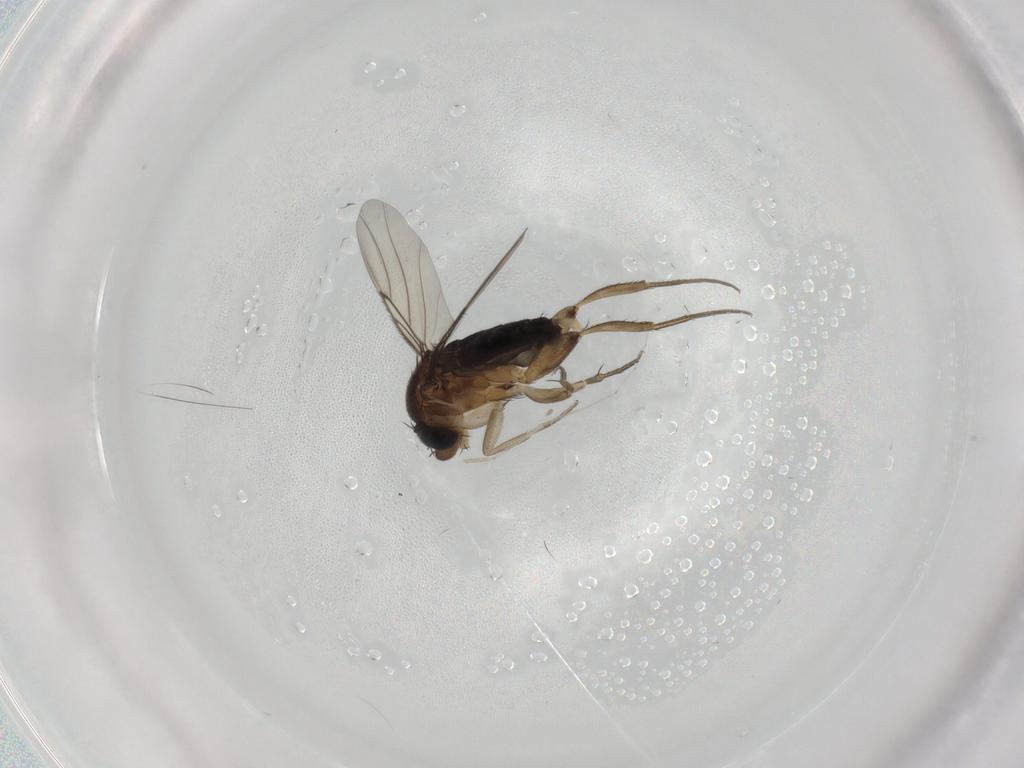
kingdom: Animalia
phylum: Arthropoda
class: Insecta
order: Diptera
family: Phoridae
